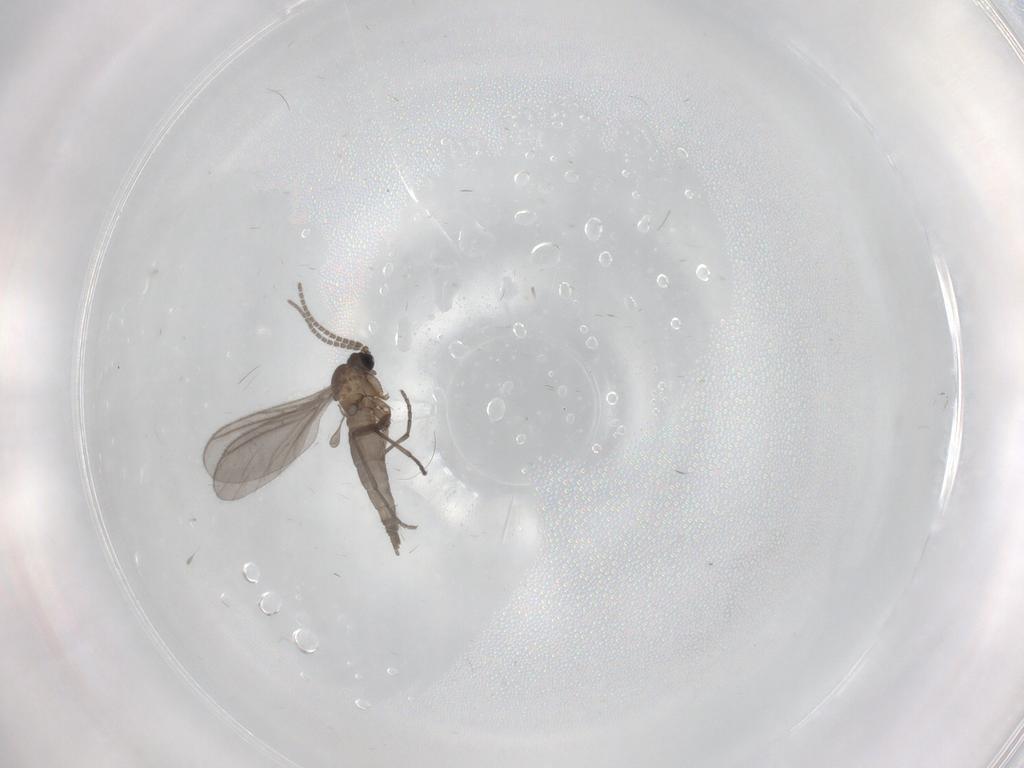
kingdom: Animalia
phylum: Arthropoda
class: Insecta
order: Diptera
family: Sciaridae
